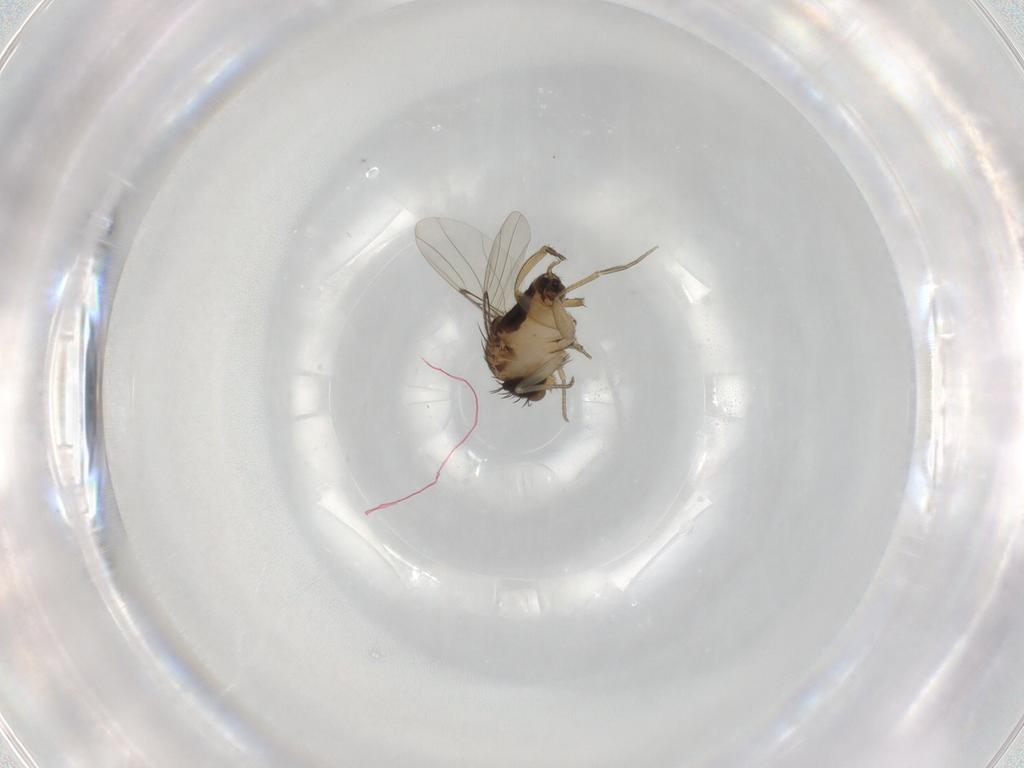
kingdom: Animalia
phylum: Arthropoda
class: Insecta
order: Diptera
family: Phoridae
